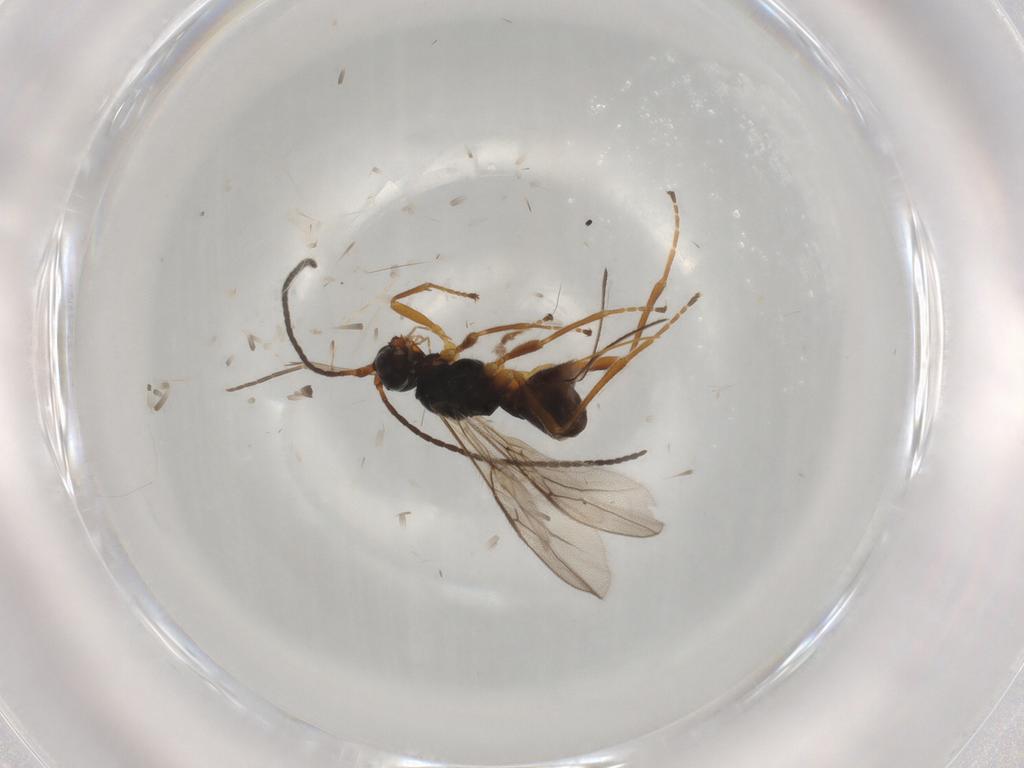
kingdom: Animalia
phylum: Arthropoda
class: Insecta
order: Hymenoptera
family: Braconidae
